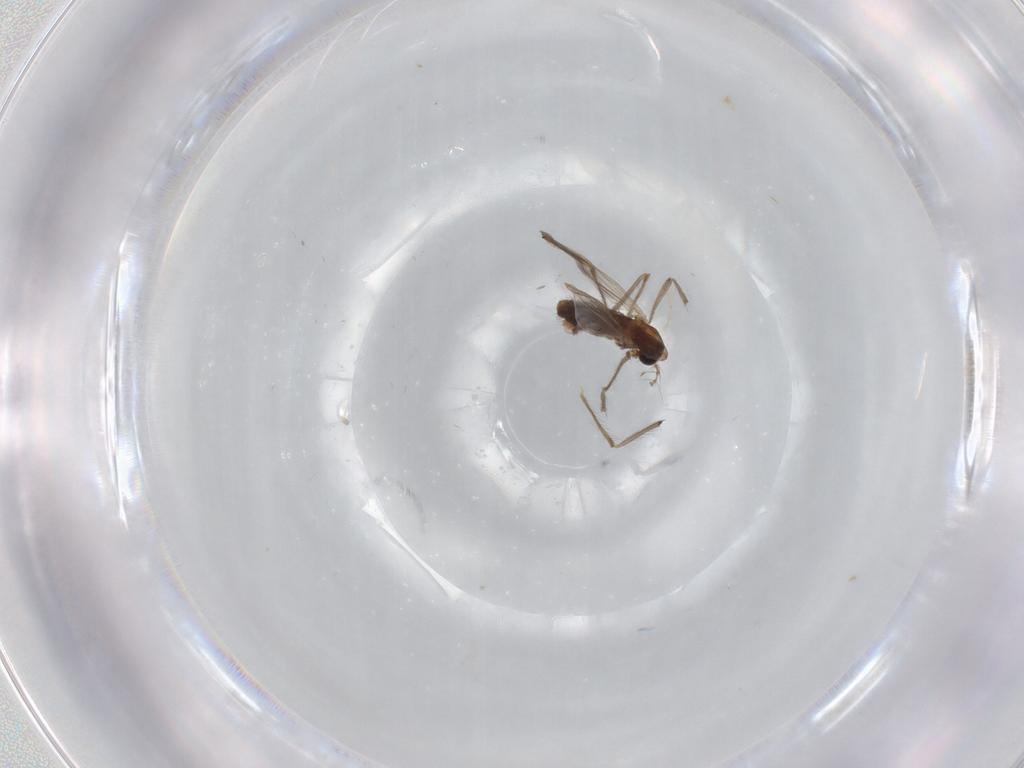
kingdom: Animalia
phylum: Arthropoda
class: Insecta
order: Diptera
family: Chironomidae
